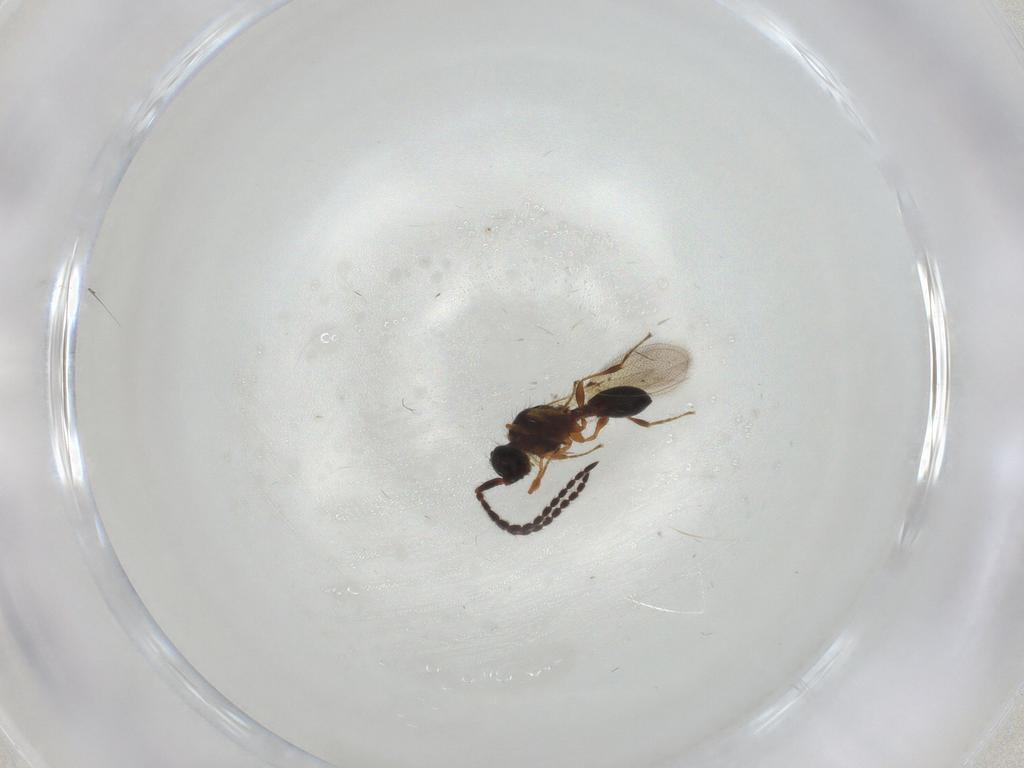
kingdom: Animalia
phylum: Arthropoda
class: Insecta
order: Hymenoptera
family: Diapriidae
